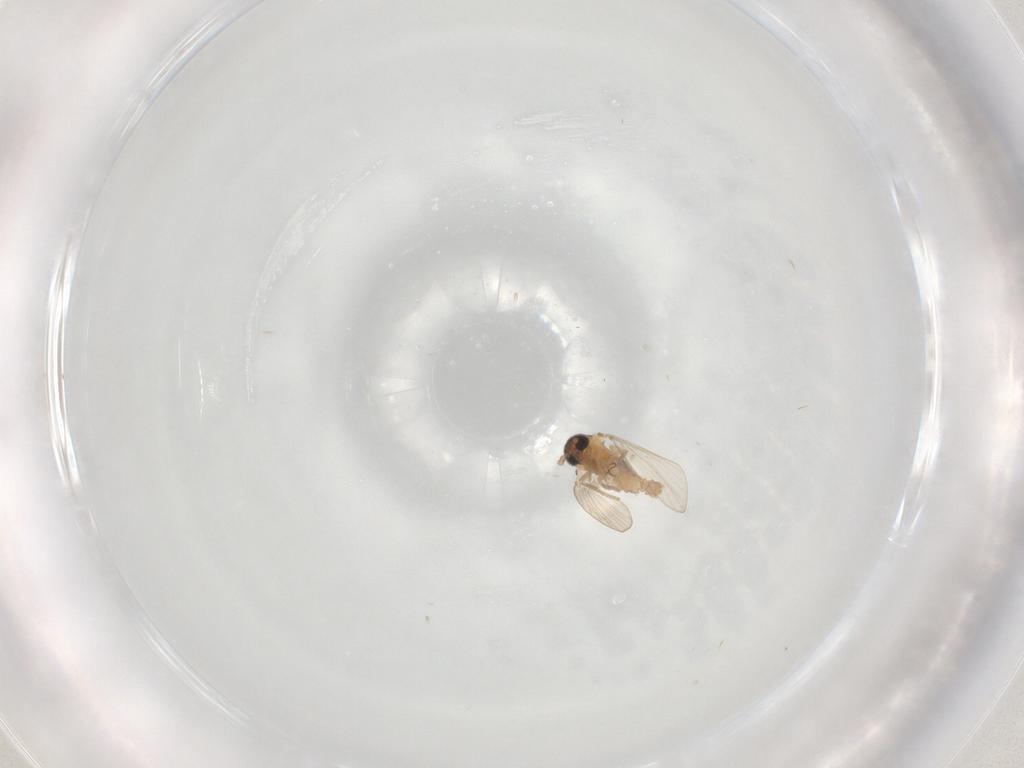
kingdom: Animalia
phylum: Arthropoda
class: Insecta
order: Diptera
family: Psychodidae
